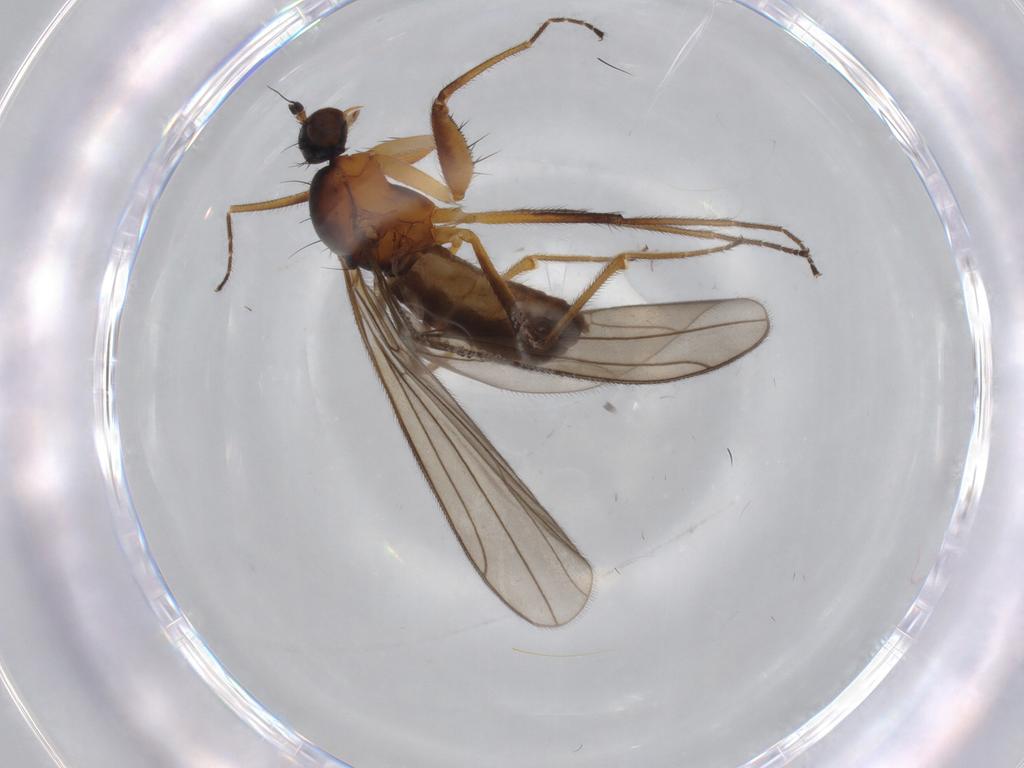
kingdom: Animalia
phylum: Arthropoda
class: Insecta
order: Diptera
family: Empididae
